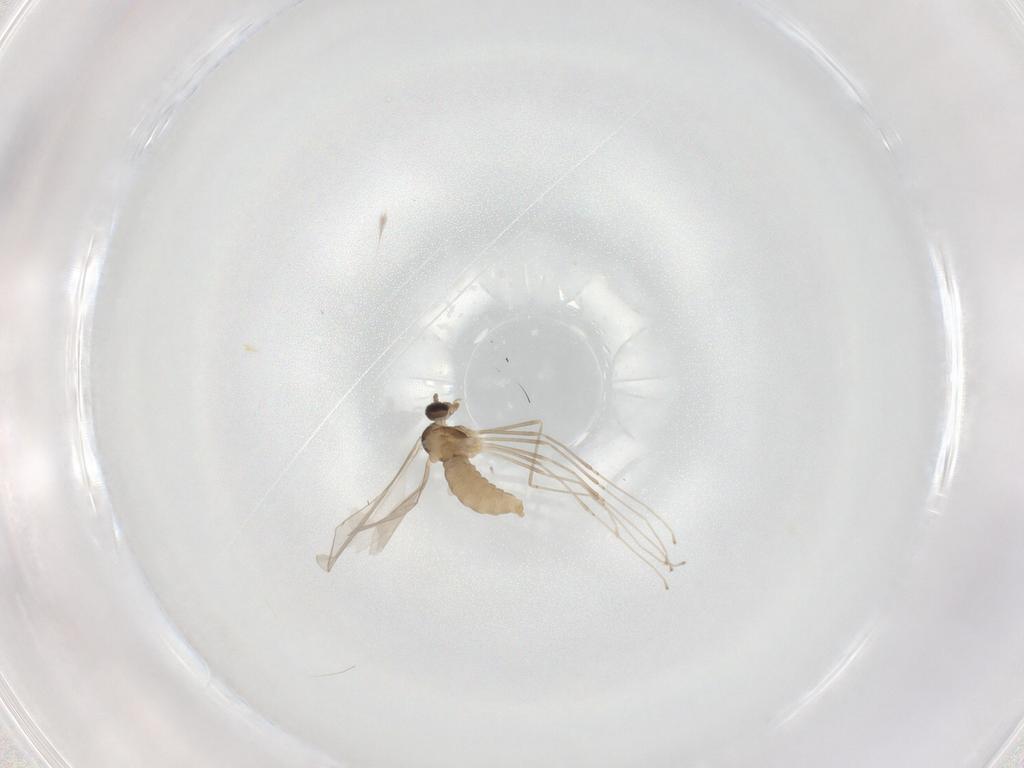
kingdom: Animalia
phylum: Arthropoda
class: Insecta
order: Diptera
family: Cecidomyiidae
